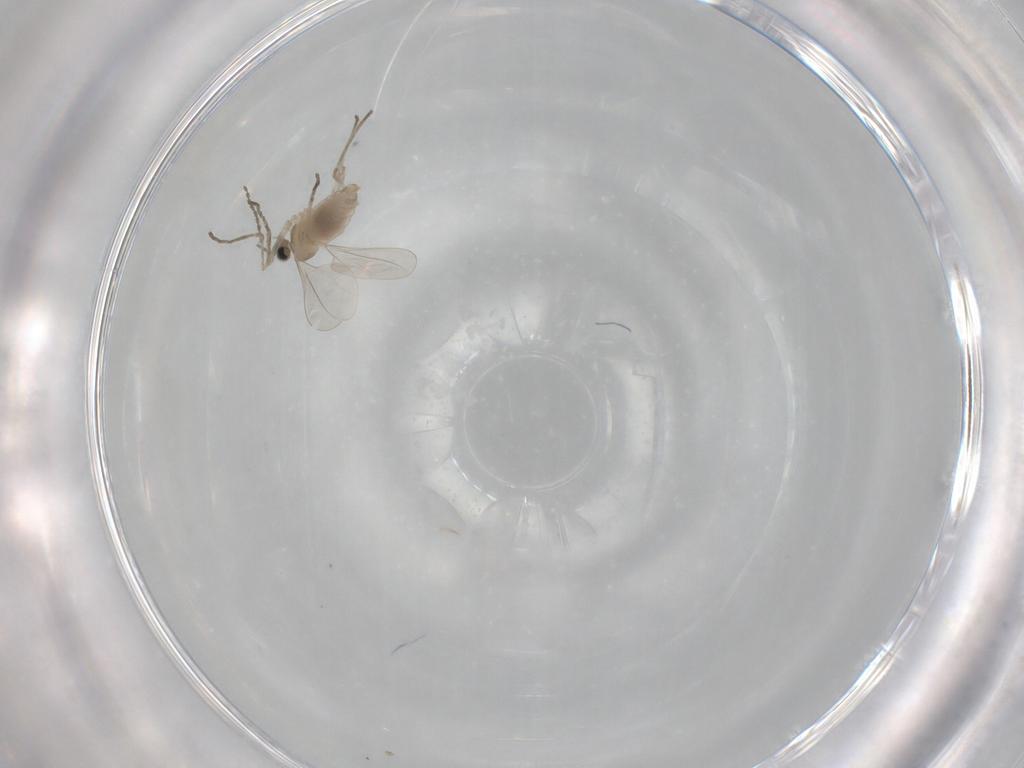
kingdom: Animalia
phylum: Arthropoda
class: Insecta
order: Diptera
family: Cecidomyiidae
